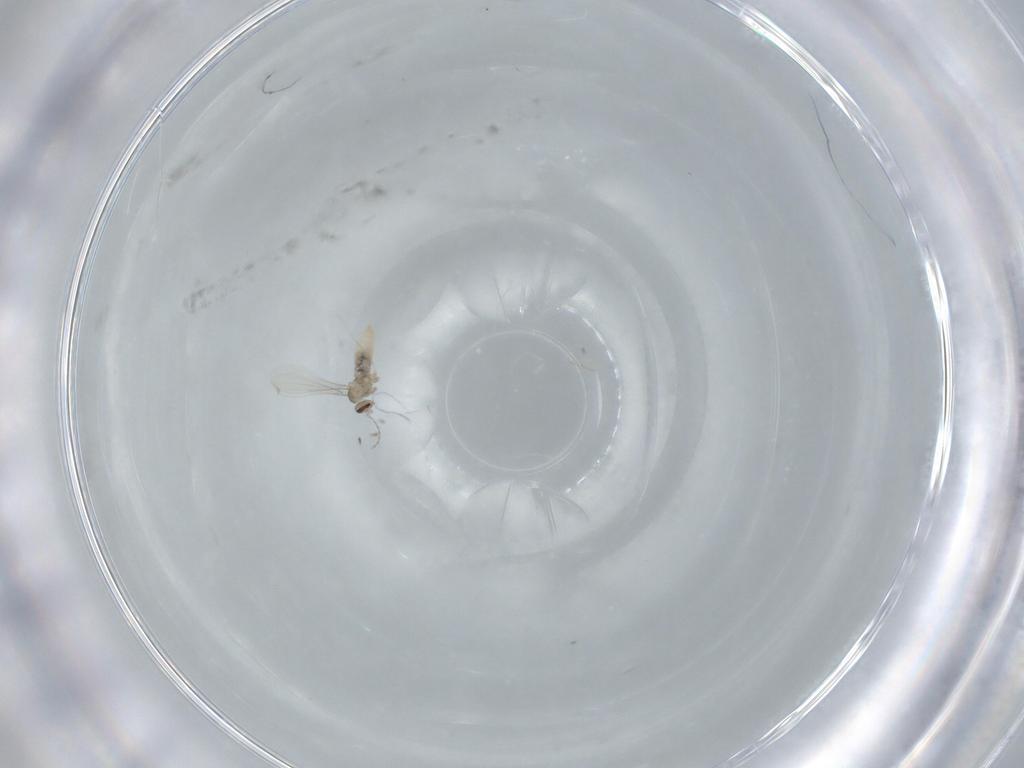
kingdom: Animalia
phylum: Arthropoda
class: Insecta
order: Diptera
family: Cecidomyiidae
